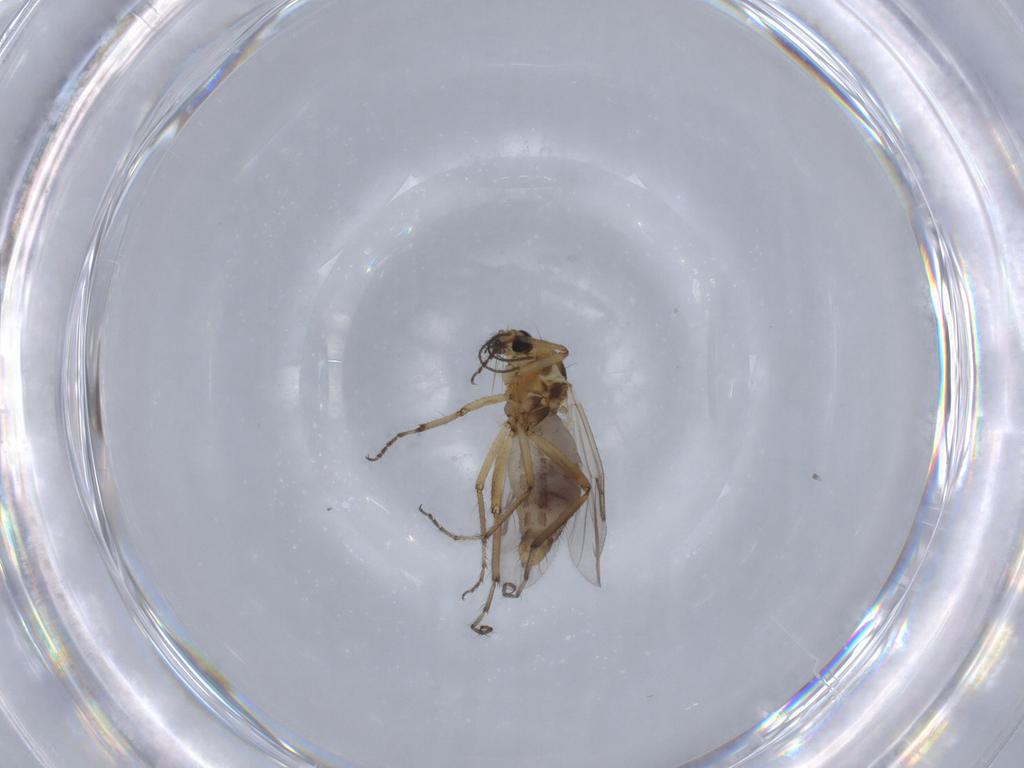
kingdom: Animalia
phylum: Arthropoda
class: Insecta
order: Diptera
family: Ceratopogonidae
